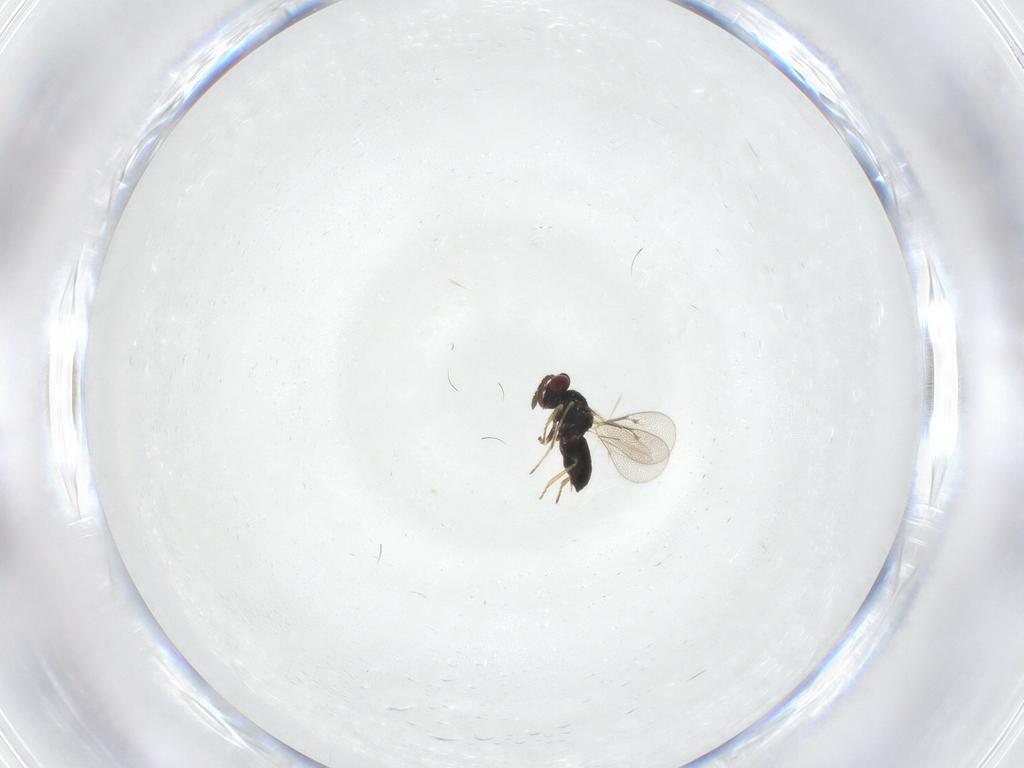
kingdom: Animalia
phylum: Arthropoda
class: Insecta
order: Hymenoptera
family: Eulophidae
